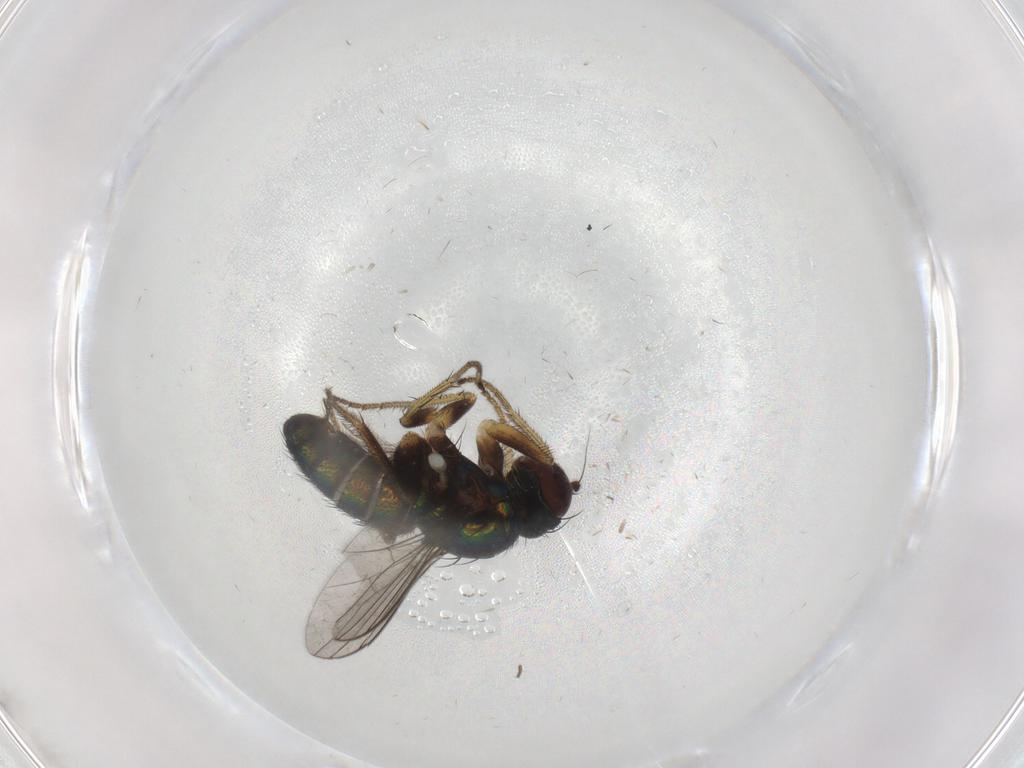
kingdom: Animalia
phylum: Arthropoda
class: Insecta
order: Diptera
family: Dolichopodidae
